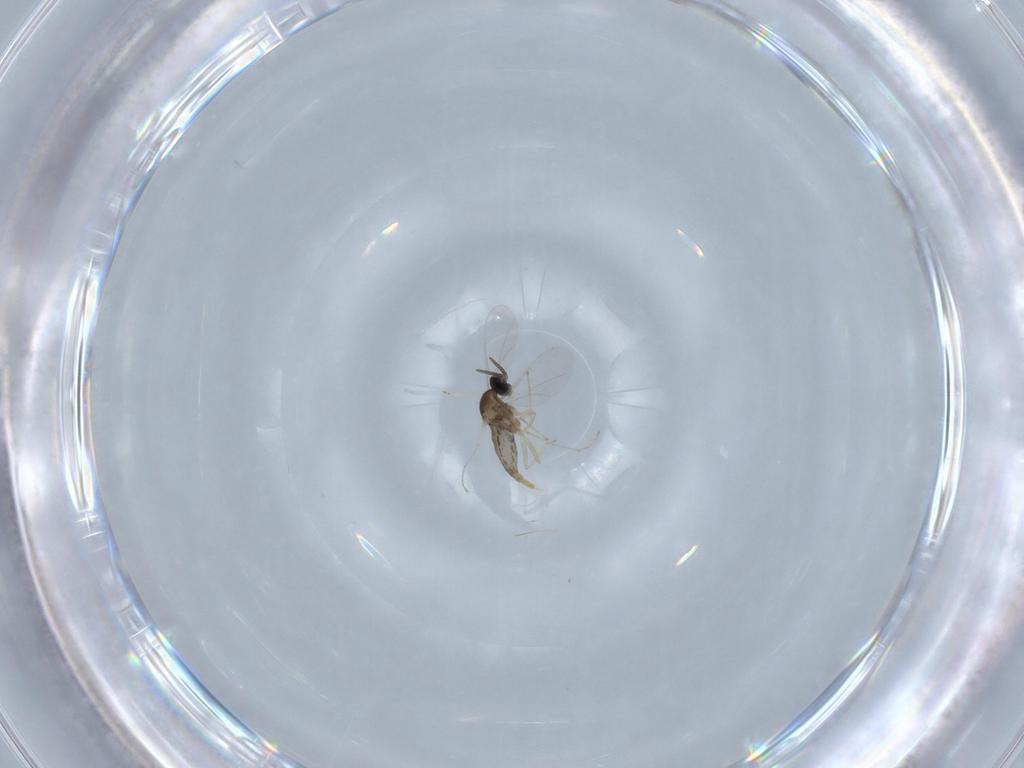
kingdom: Animalia
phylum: Arthropoda
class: Insecta
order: Diptera
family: Cecidomyiidae
